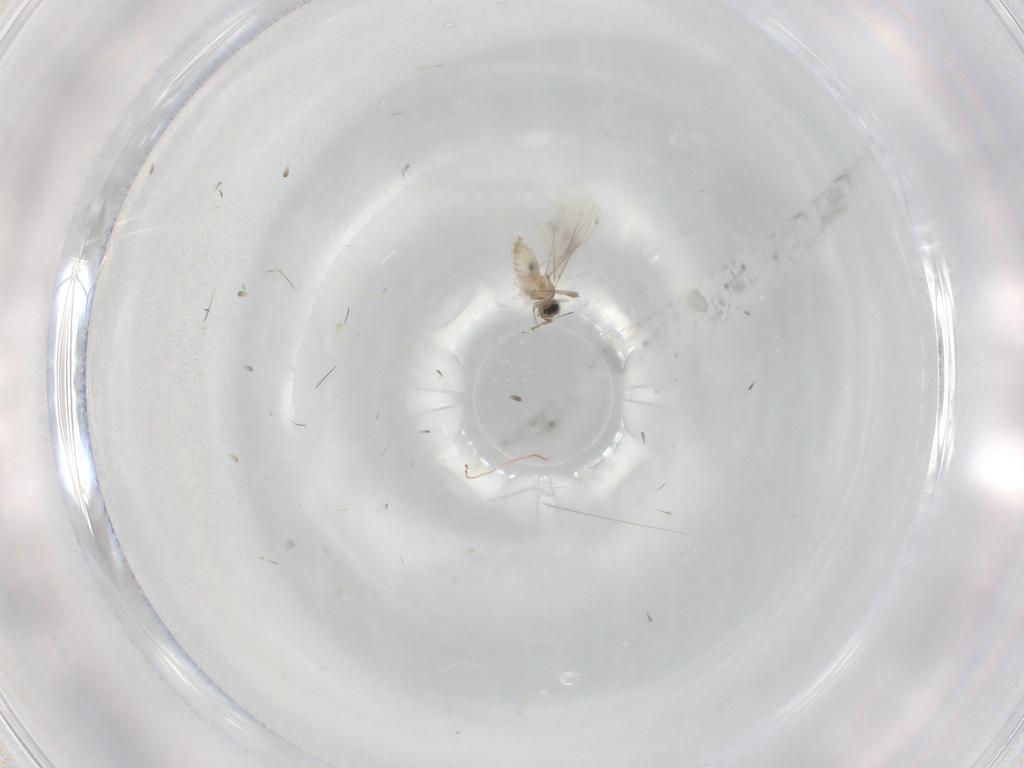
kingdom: Animalia
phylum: Arthropoda
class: Insecta
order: Diptera
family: Cecidomyiidae
